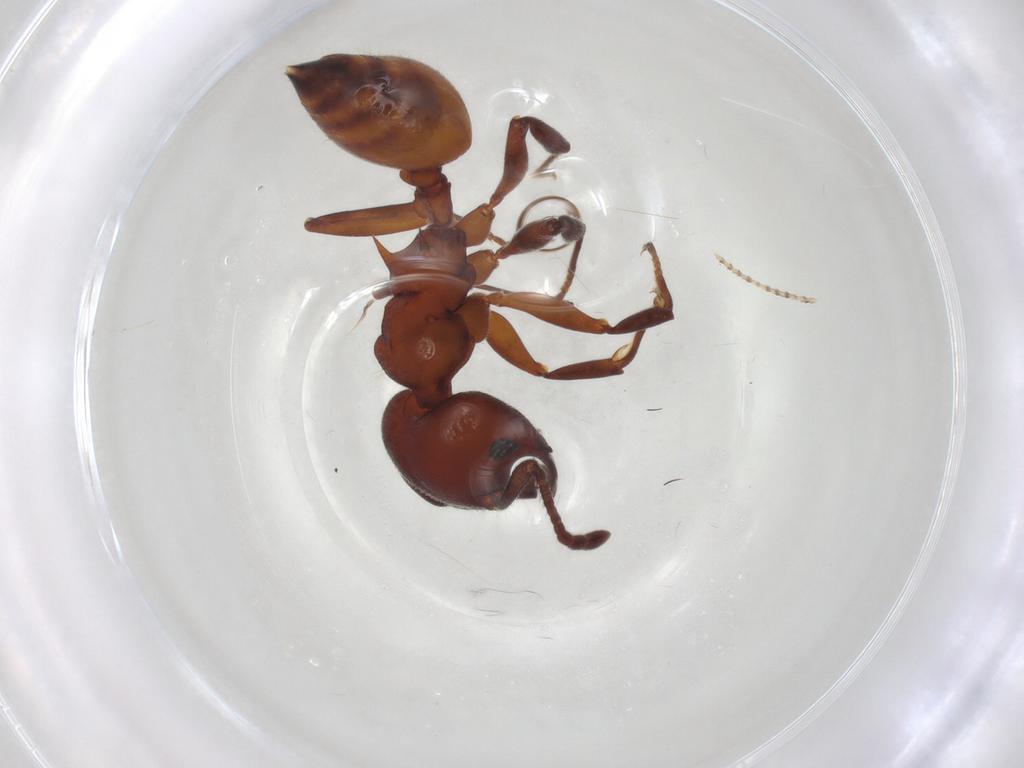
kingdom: Animalia
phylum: Arthropoda
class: Insecta
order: Hymenoptera
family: Formicidae
